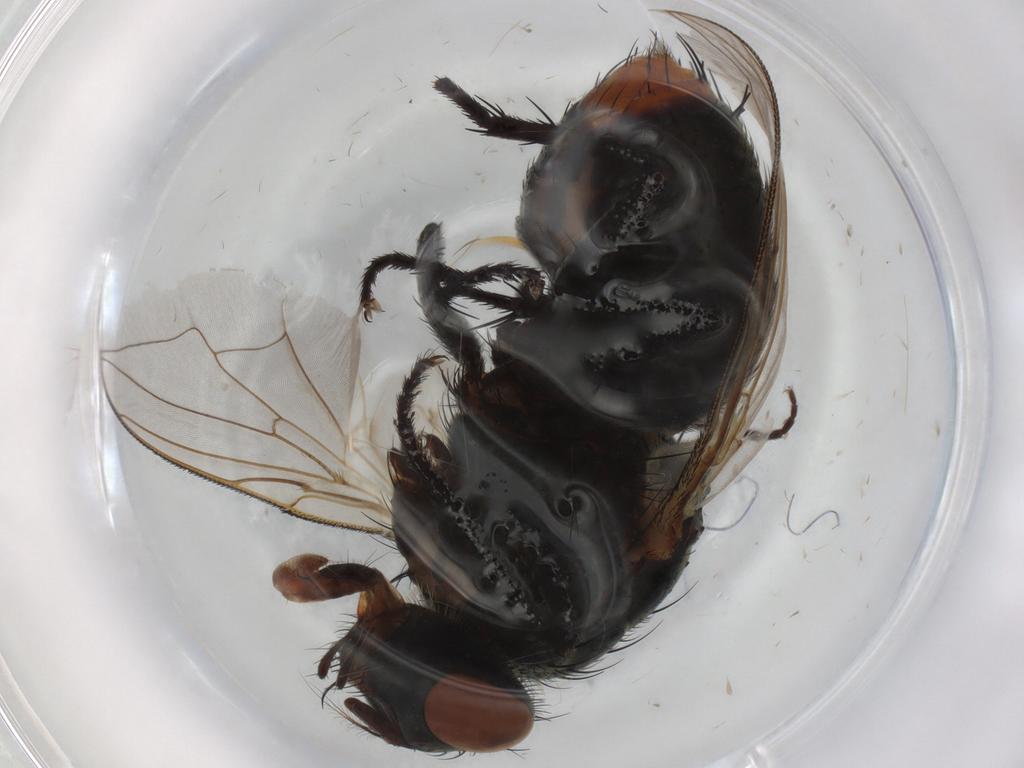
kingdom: Animalia
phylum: Arthropoda
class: Insecta
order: Diptera
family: Ceratopogonidae
